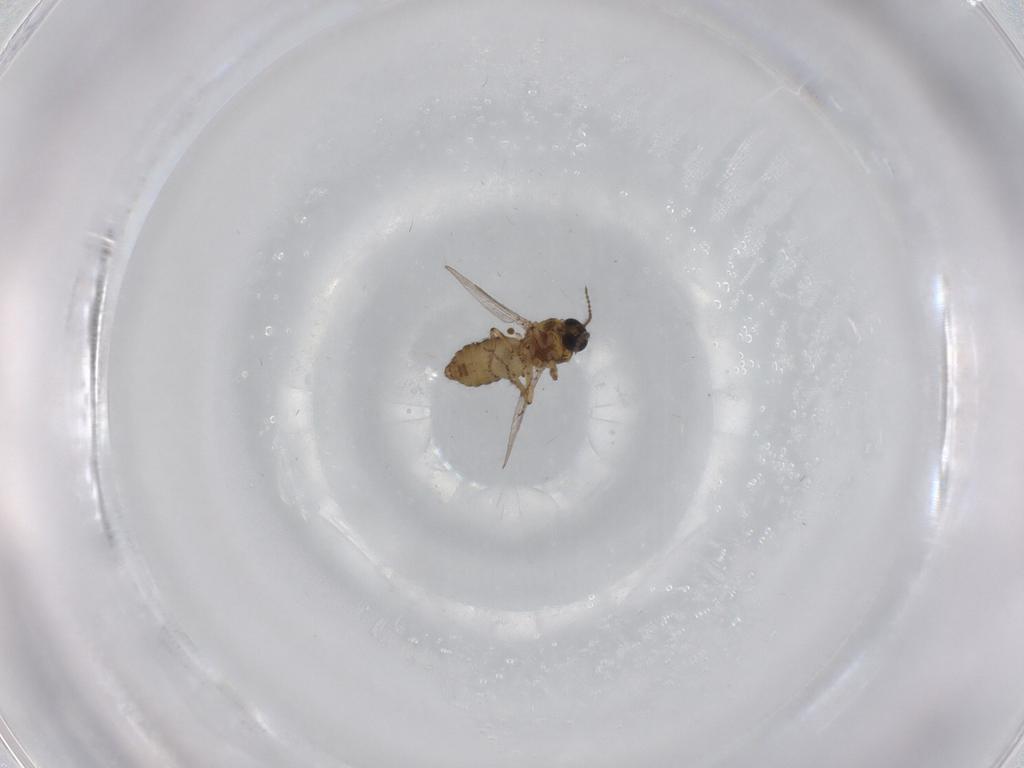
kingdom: Animalia
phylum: Arthropoda
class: Insecta
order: Diptera
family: Ceratopogonidae
